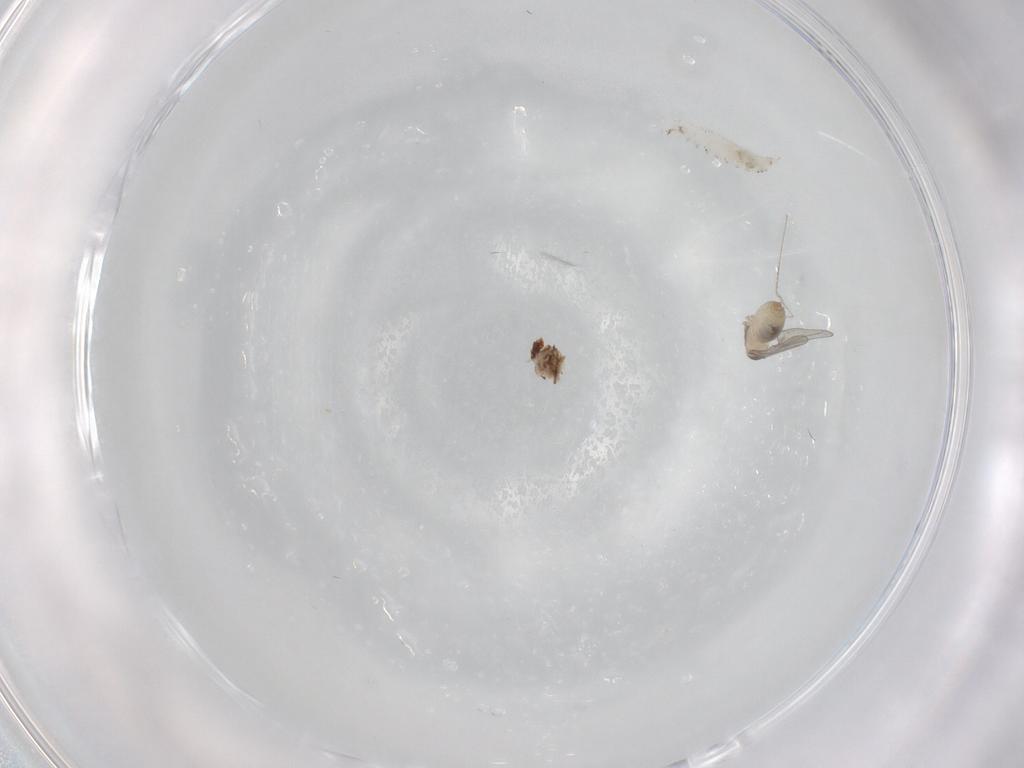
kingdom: Animalia
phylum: Arthropoda
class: Insecta
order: Diptera
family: Cecidomyiidae
